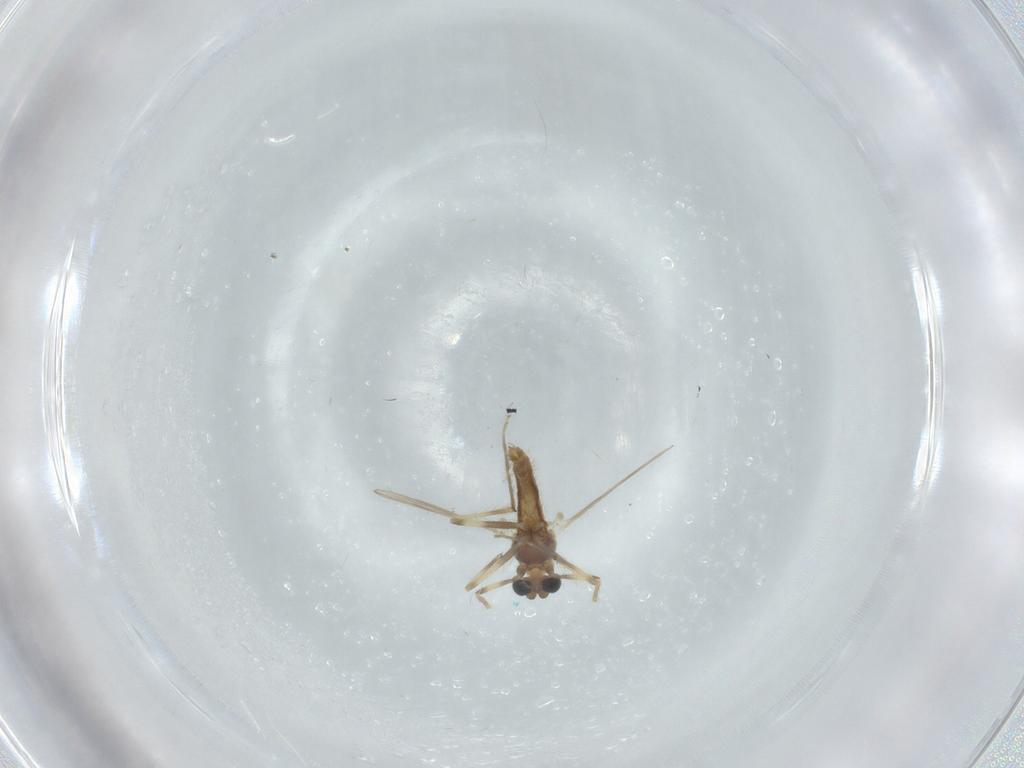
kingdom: Animalia
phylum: Arthropoda
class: Insecta
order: Diptera
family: Chironomidae
